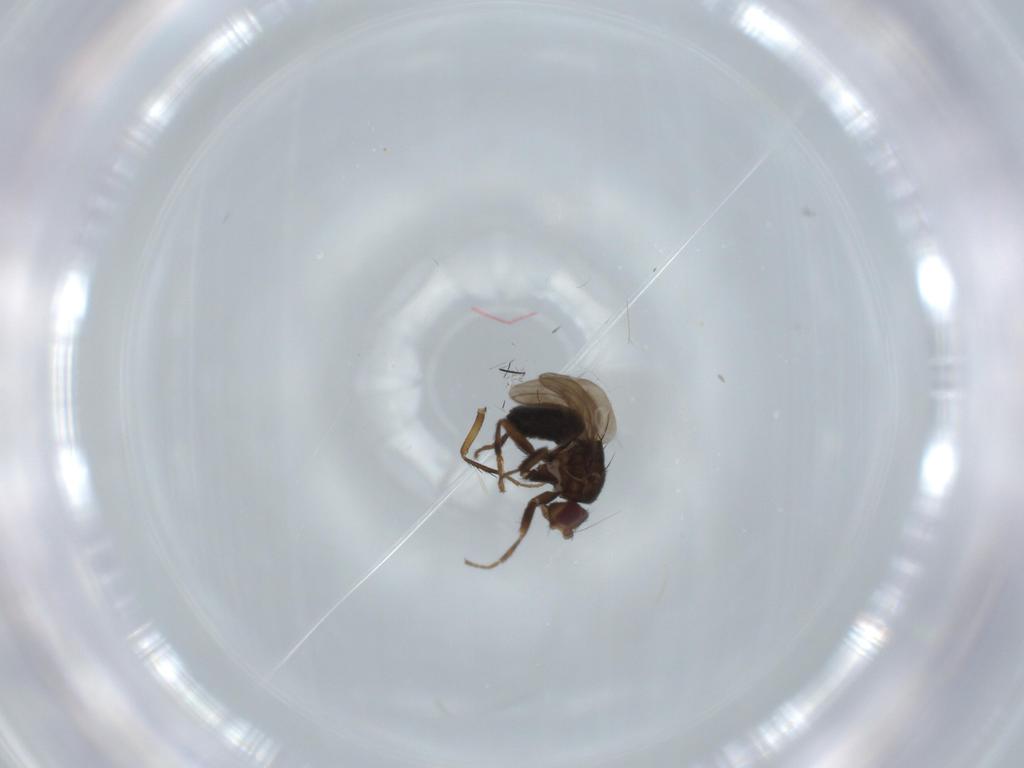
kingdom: Animalia
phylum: Arthropoda
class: Insecta
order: Diptera
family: Sphaeroceridae
